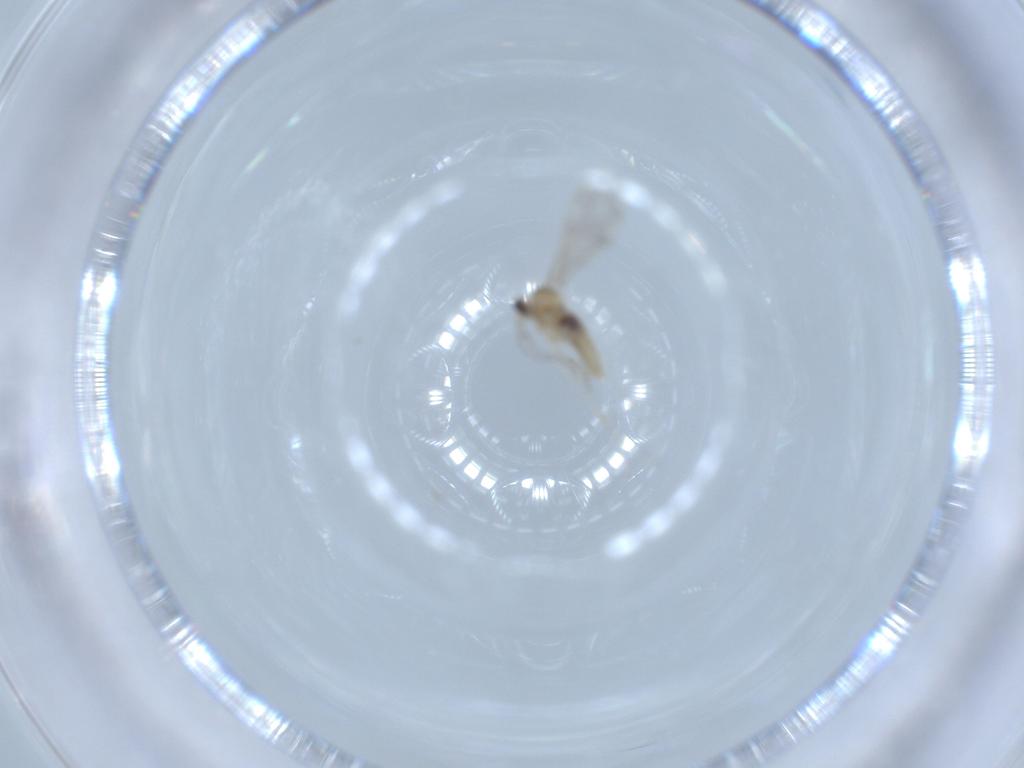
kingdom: Animalia
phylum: Arthropoda
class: Insecta
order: Diptera
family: Cecidomyiidae
